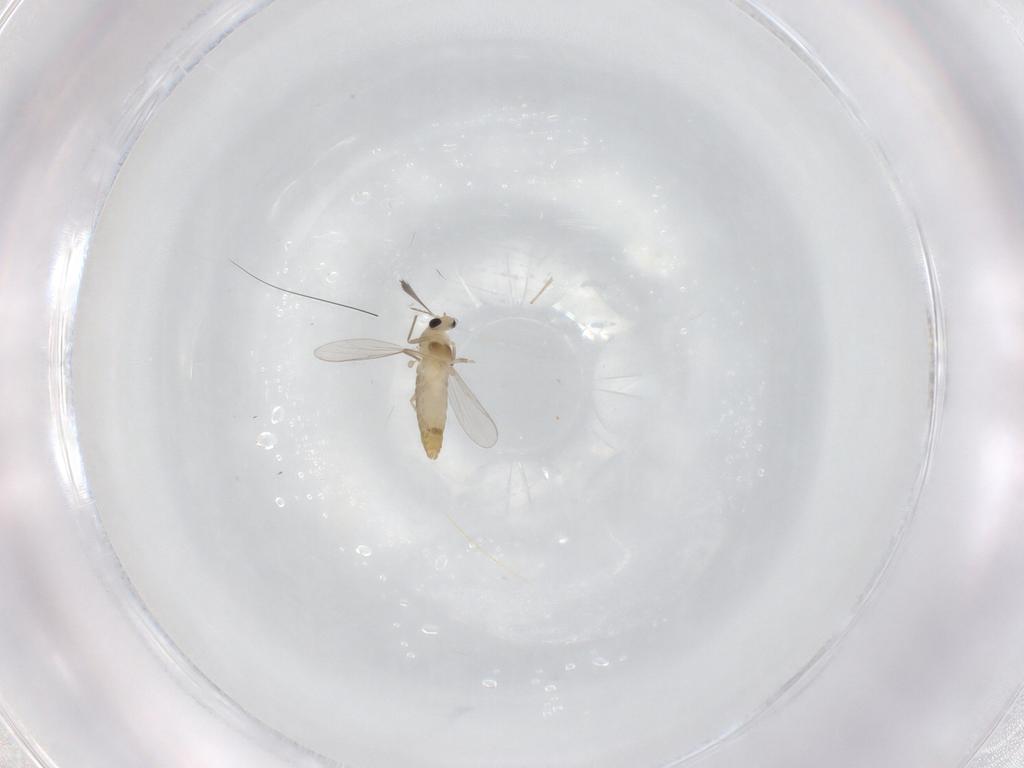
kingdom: Animalia
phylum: Arthropoda
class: Insecta
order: Diptera
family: Chironomidae
